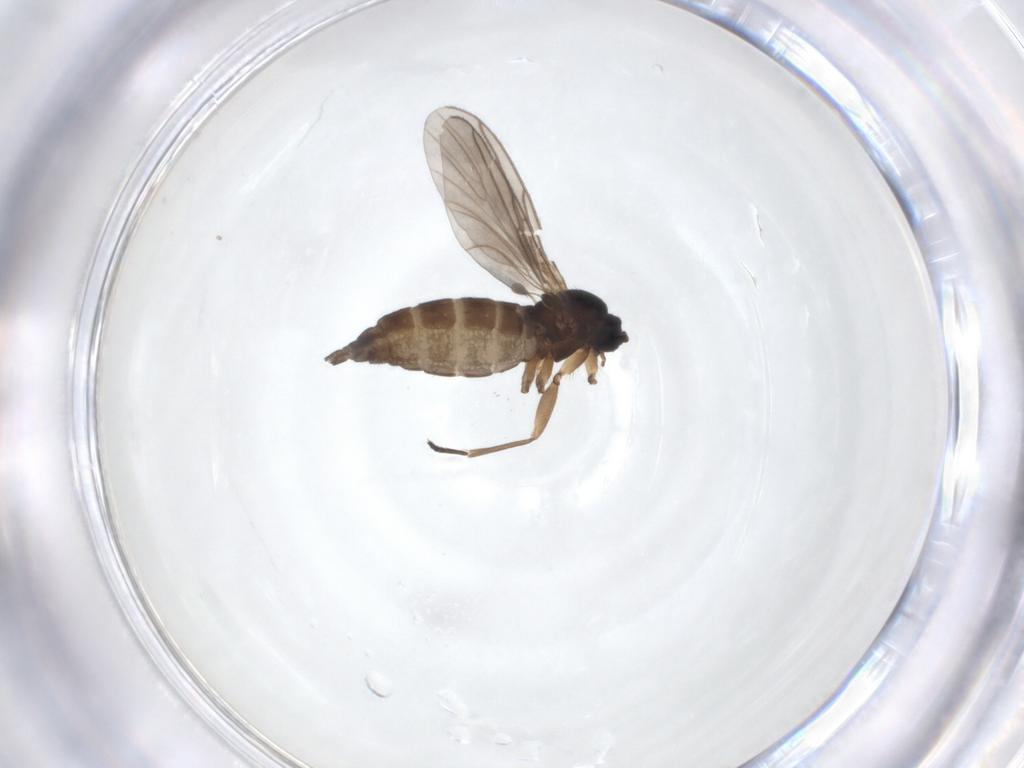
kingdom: Animalia
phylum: Arthropoda
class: Insecta
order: Diptera
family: Sciaridae
